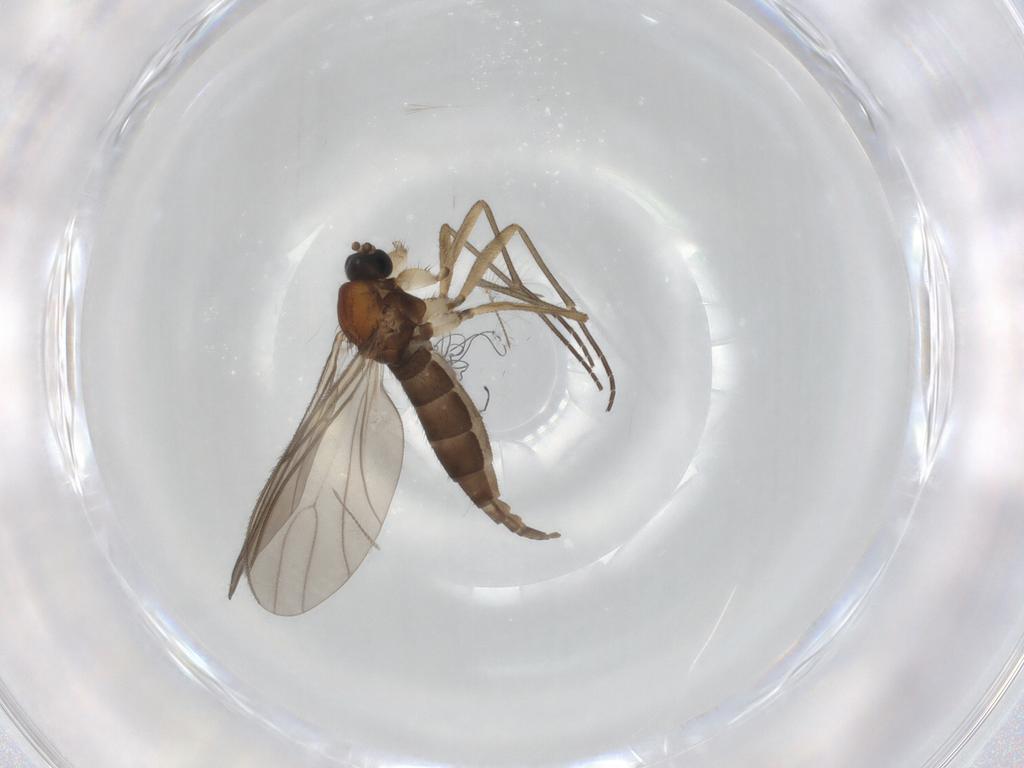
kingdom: Animalia
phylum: Arthropoda
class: Insecta
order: Diptera
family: Sciaridae
